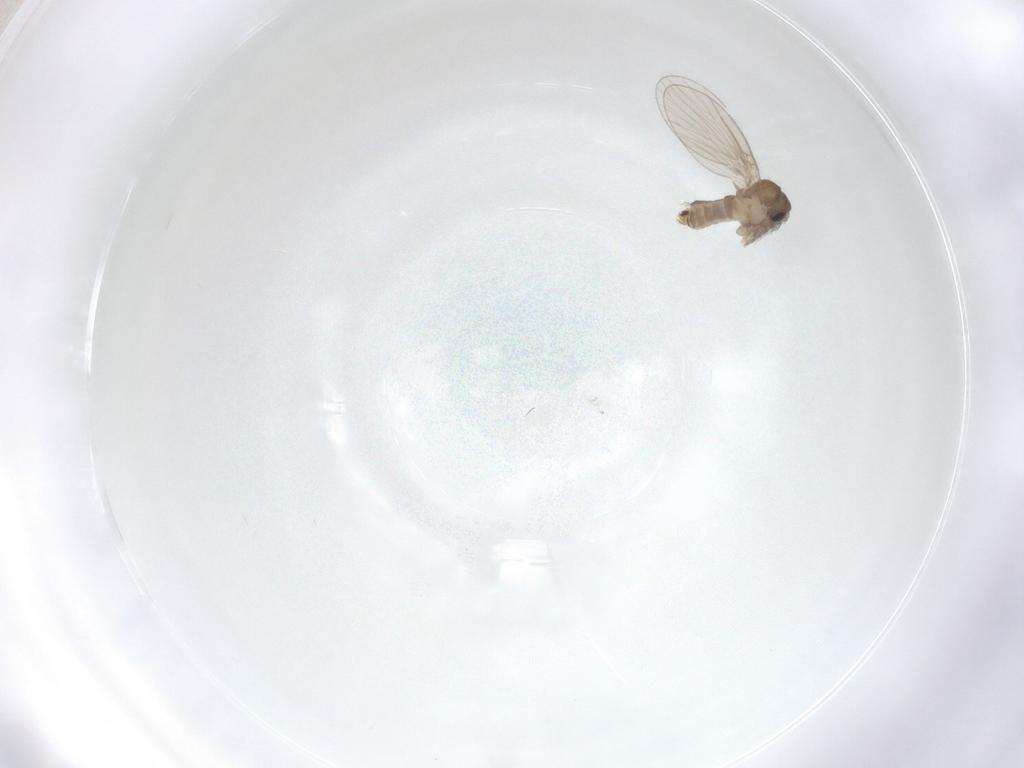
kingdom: Animalia
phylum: Arthropoda
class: Insecta
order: Diptera
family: Psychodidae
